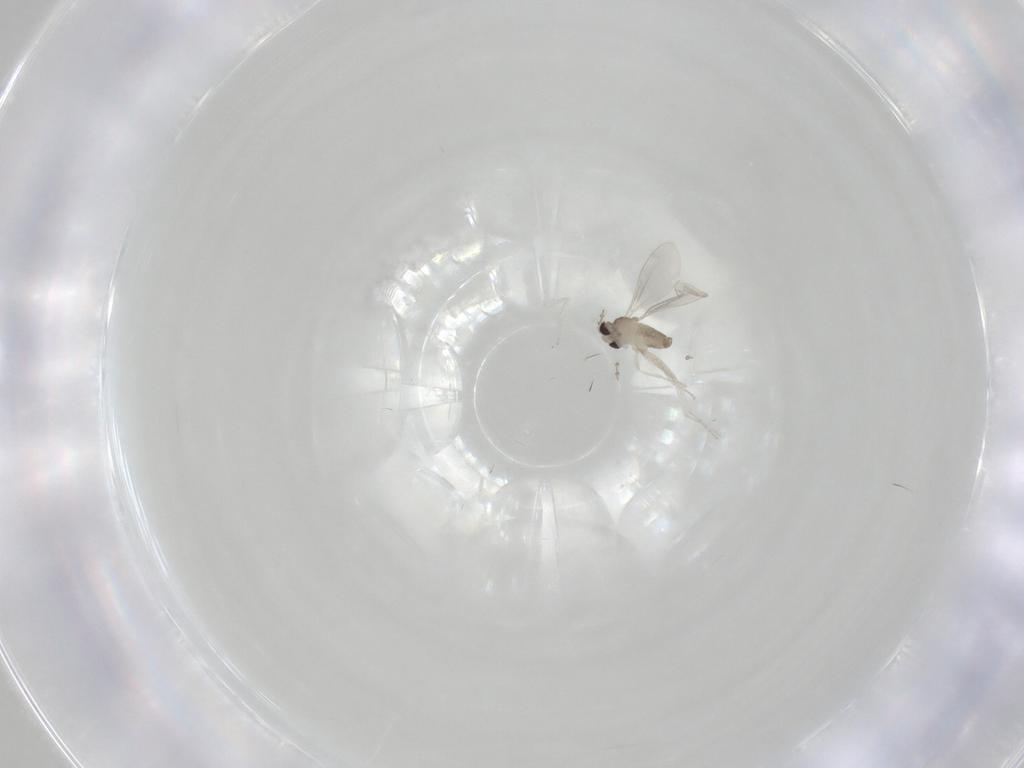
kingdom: Animalia
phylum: Arthropoda
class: Insecta
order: Diptera
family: Cecidomyiidae
